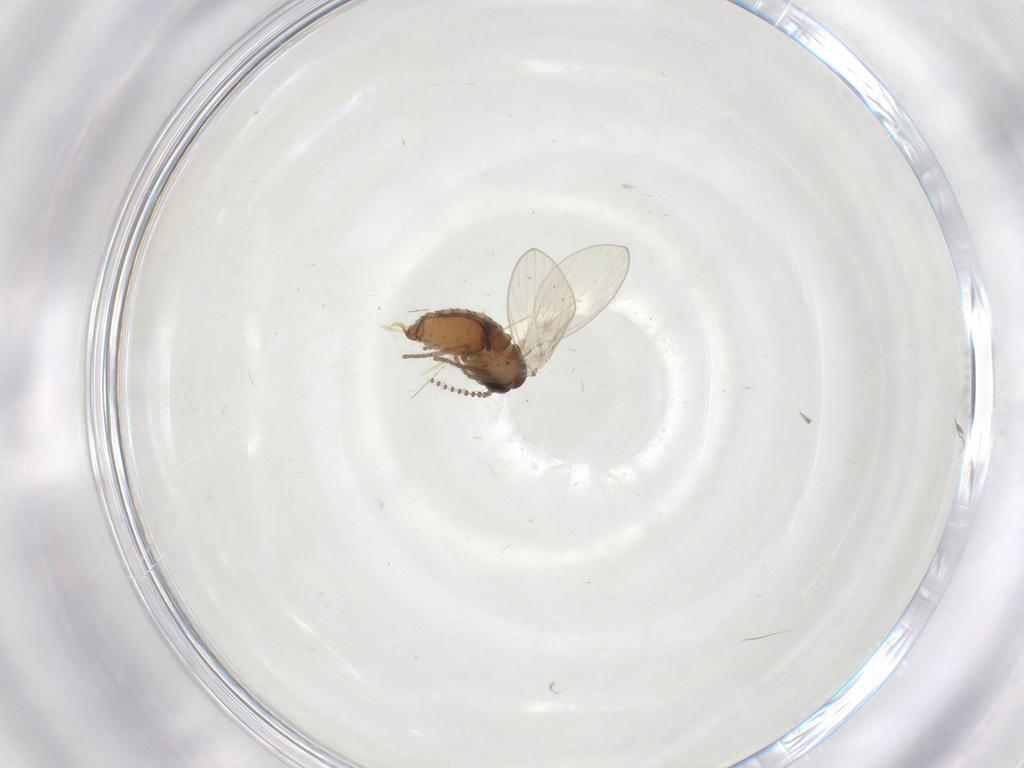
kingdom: Animalia
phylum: Arthropoda
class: Insecta
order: Diptera
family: Psychodidae
